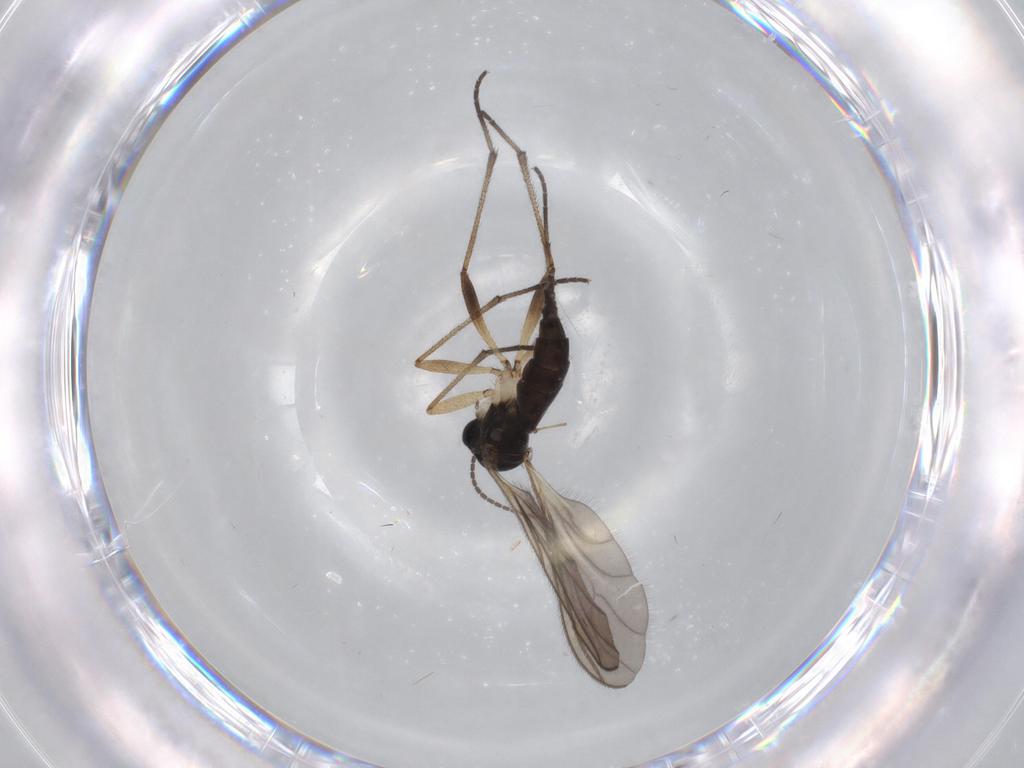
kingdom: Animalia
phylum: Arthropoda
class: Insecta
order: Diptera
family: Sciaridae
